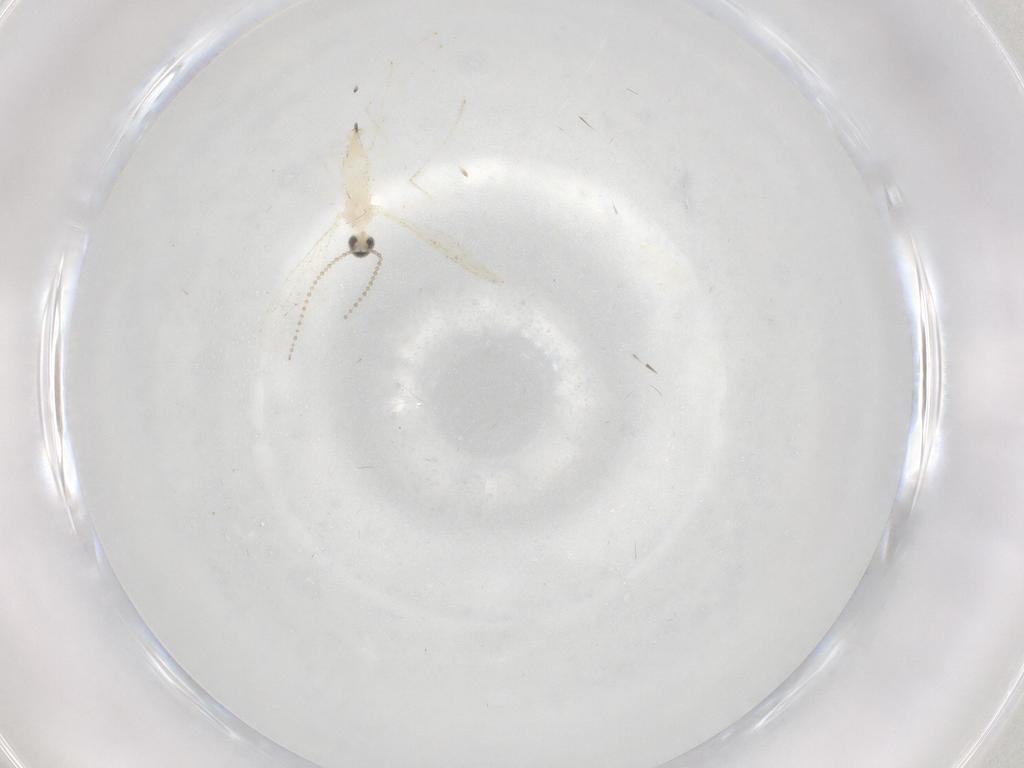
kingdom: Animalia
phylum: Arthropoda
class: Insecta
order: Diptera
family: Cecidomyiidae
